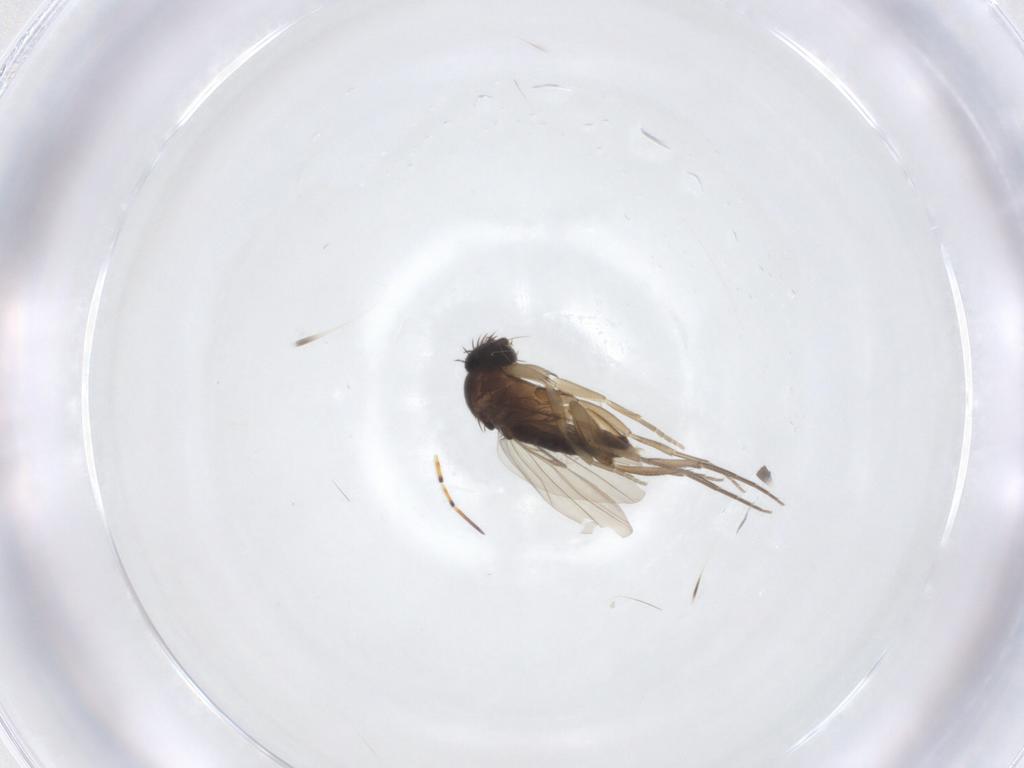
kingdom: Animalia
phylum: Arthropoda
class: Insecta
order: Diptera
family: Phoridae
